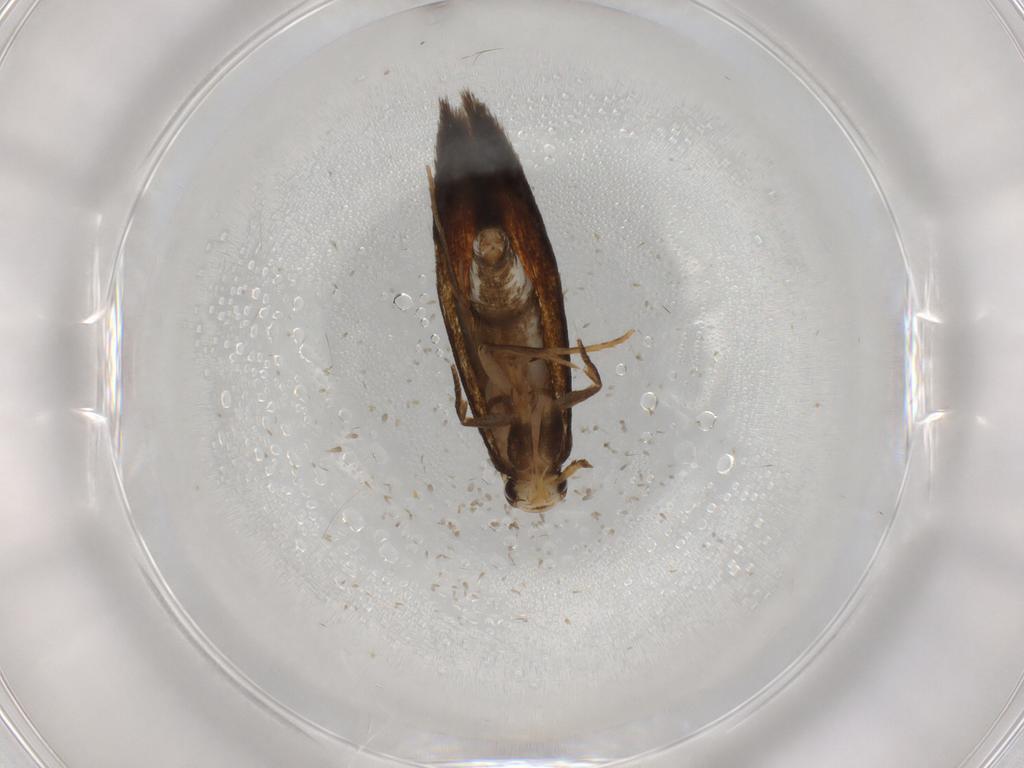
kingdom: Animalia
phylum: Arthropoda
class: Insecta
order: Lepidoptera
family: Tineidae
